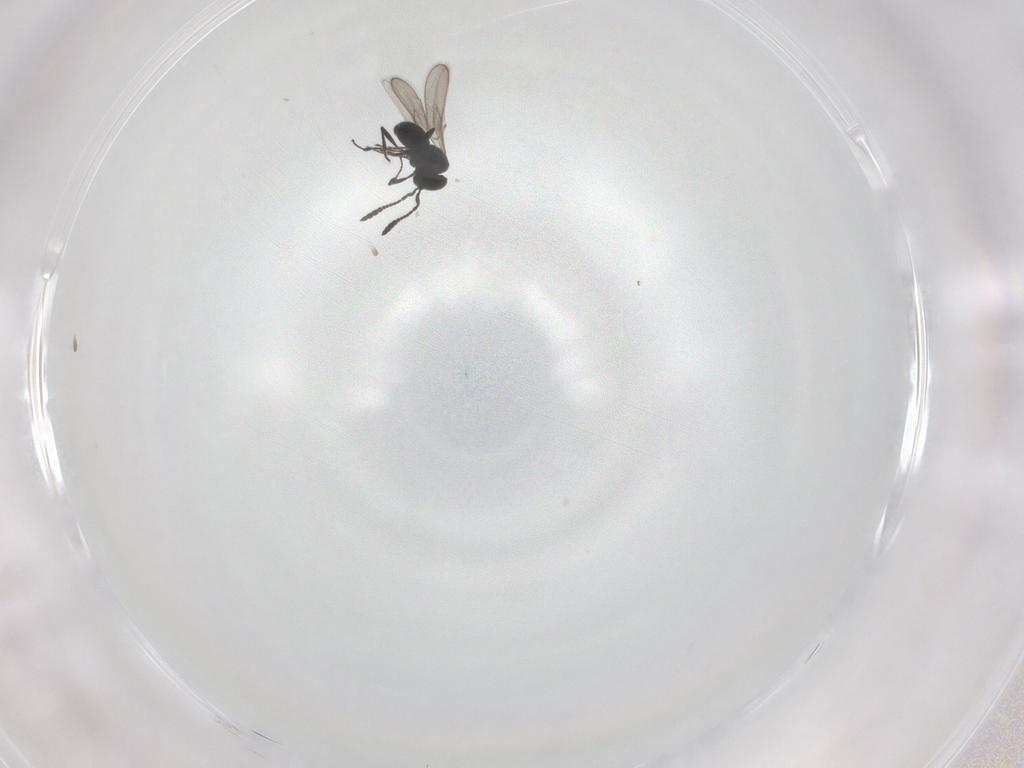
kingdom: Animalia
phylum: Arthropoda
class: Insecta
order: Hymenoptera
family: Scelionidae
